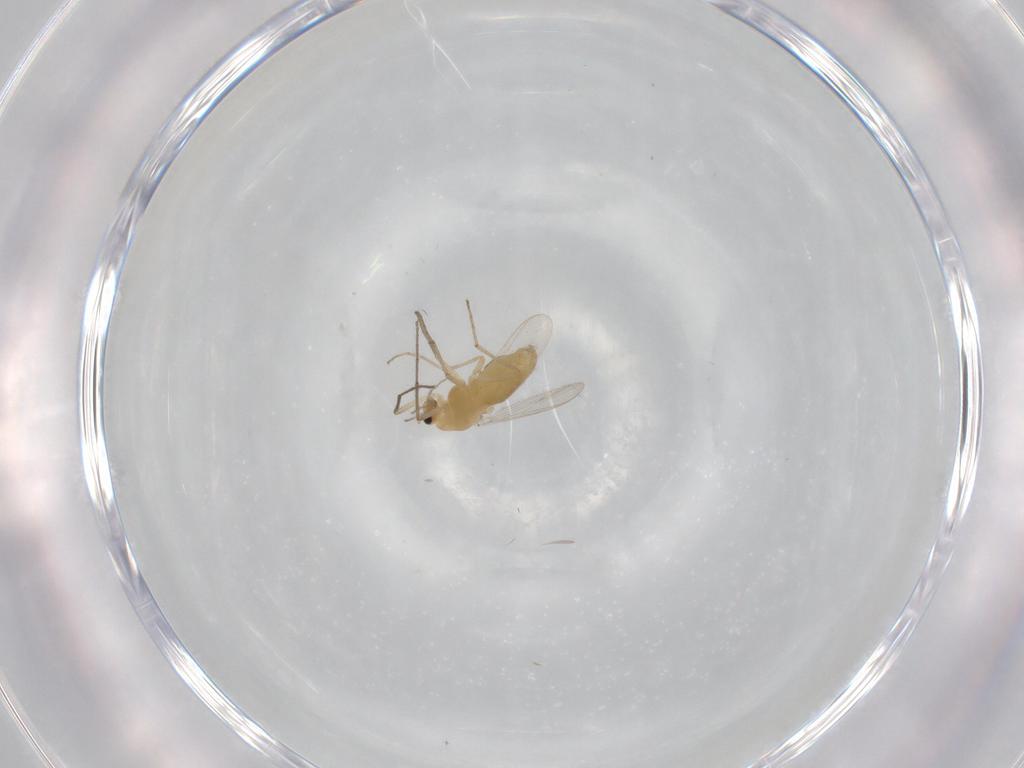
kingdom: Animalia
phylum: Arthropoda
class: Insecta
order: Diptera
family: Chironomidae
